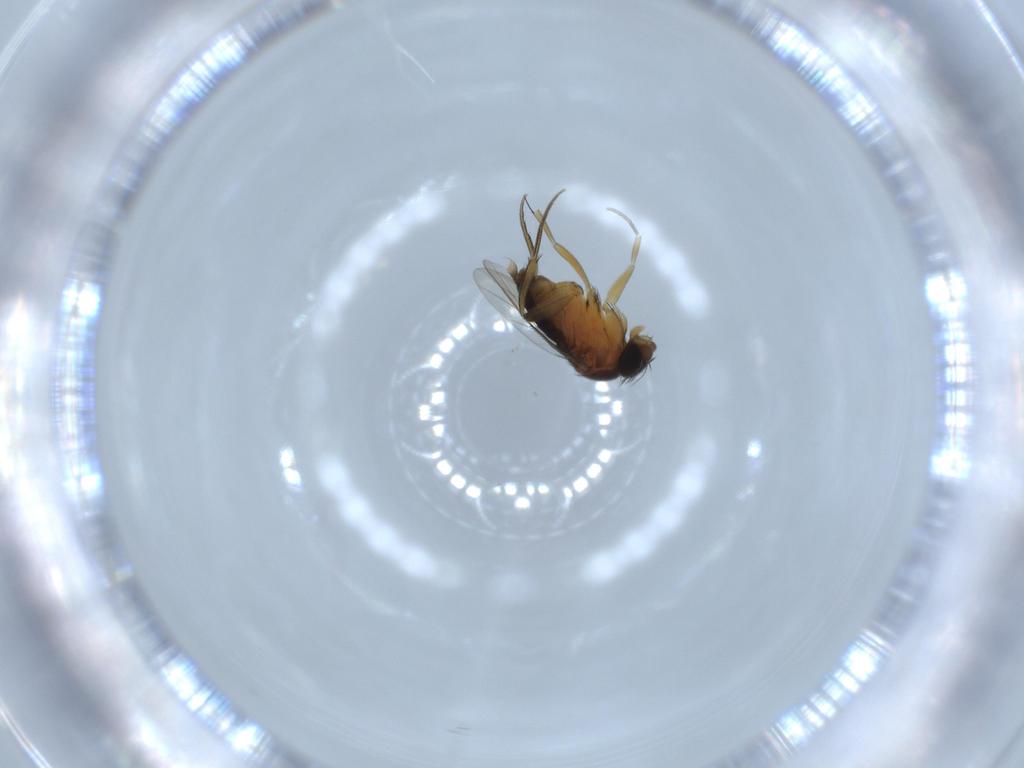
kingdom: Animalia
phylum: Arthropoda
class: Insecta
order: Diptera
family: Phoridae
